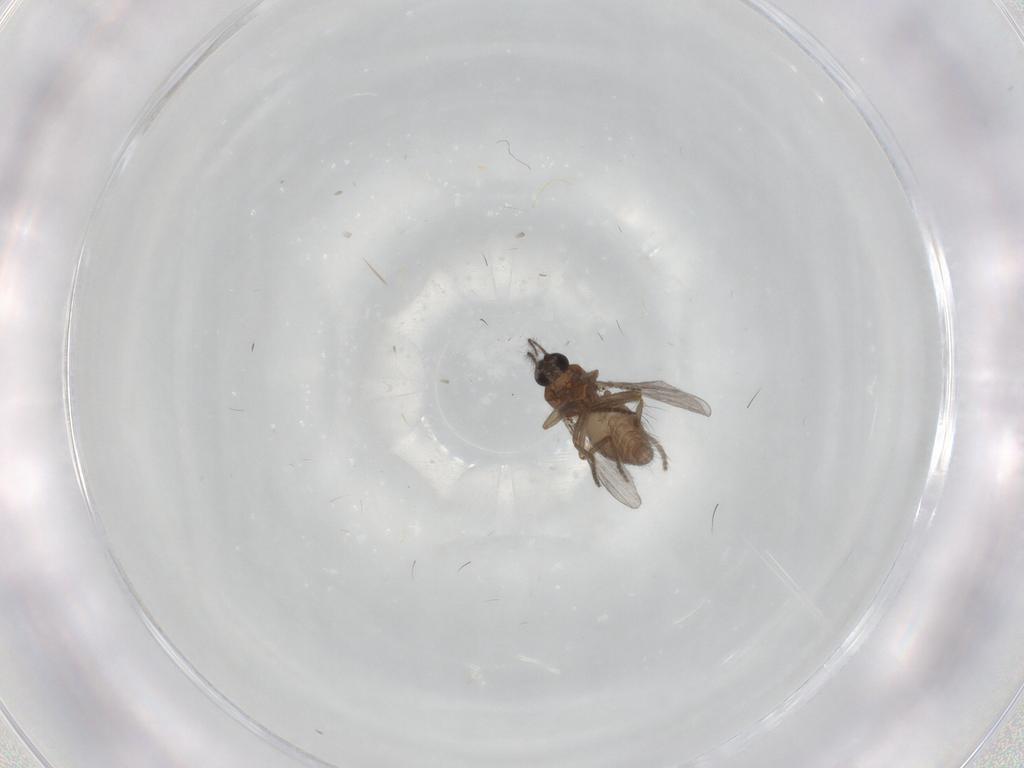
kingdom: Animalia
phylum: Arthropoda
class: Insecta
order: Diptera
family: Ceratopogonidae
